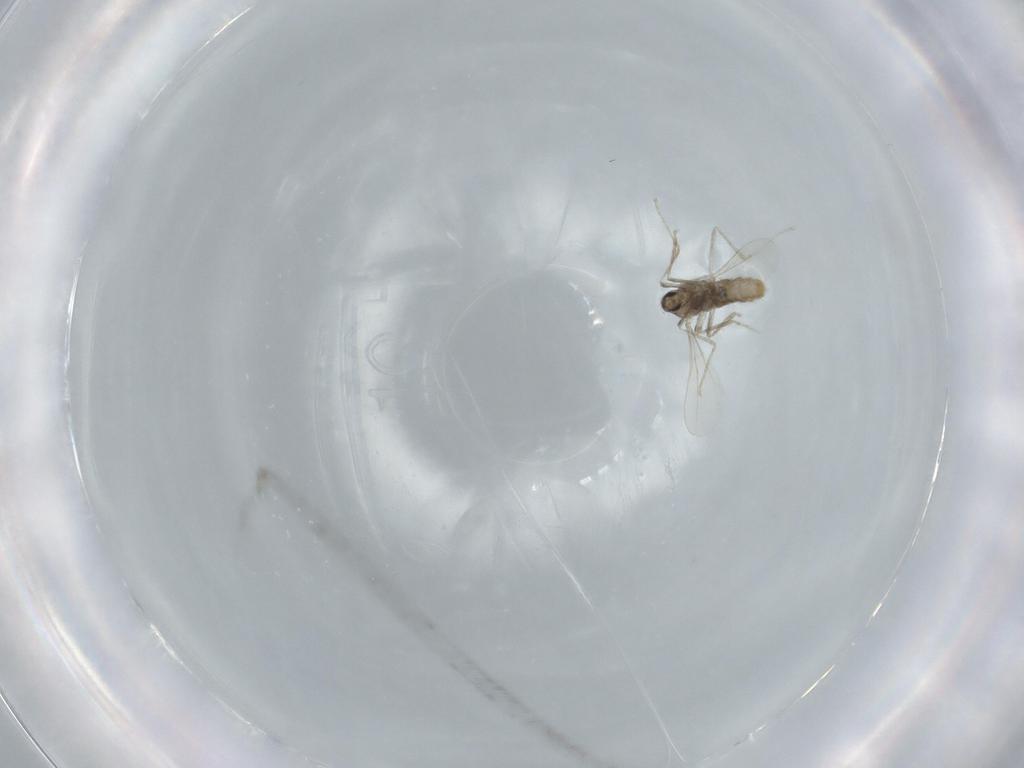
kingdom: Animalia
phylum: Arthropoda
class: Insecta
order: Diptera
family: Cecidomyiidae
